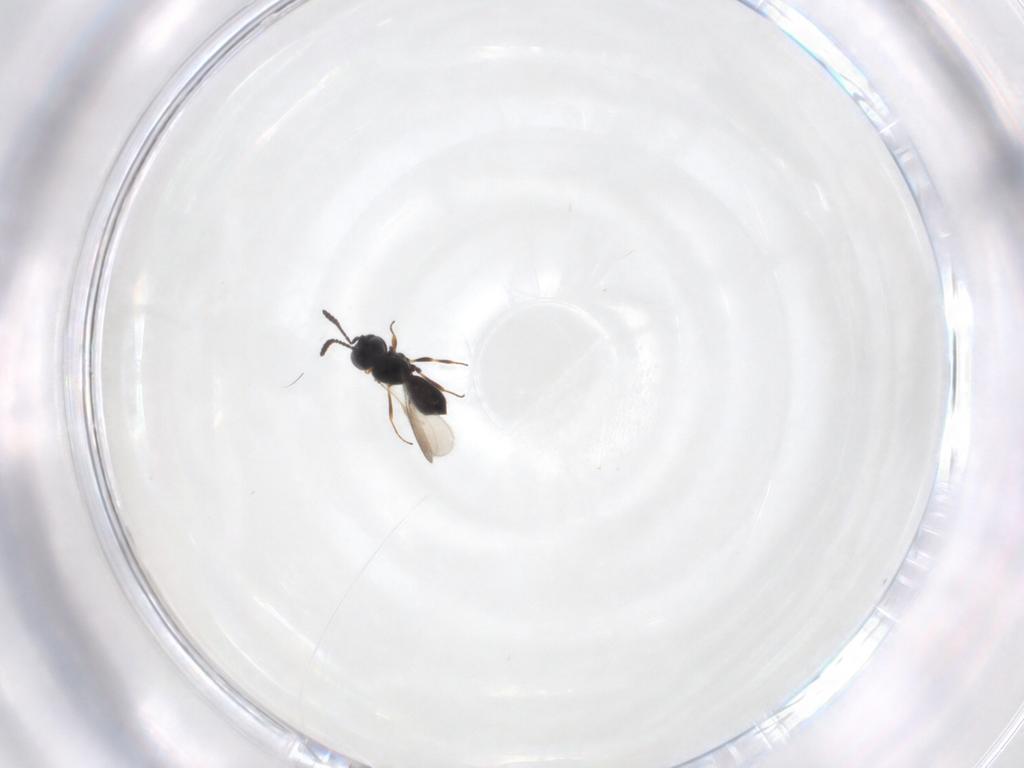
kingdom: Animalia
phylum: Arthropoda
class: Insecta
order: Hymenoptera
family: Scelionidae
